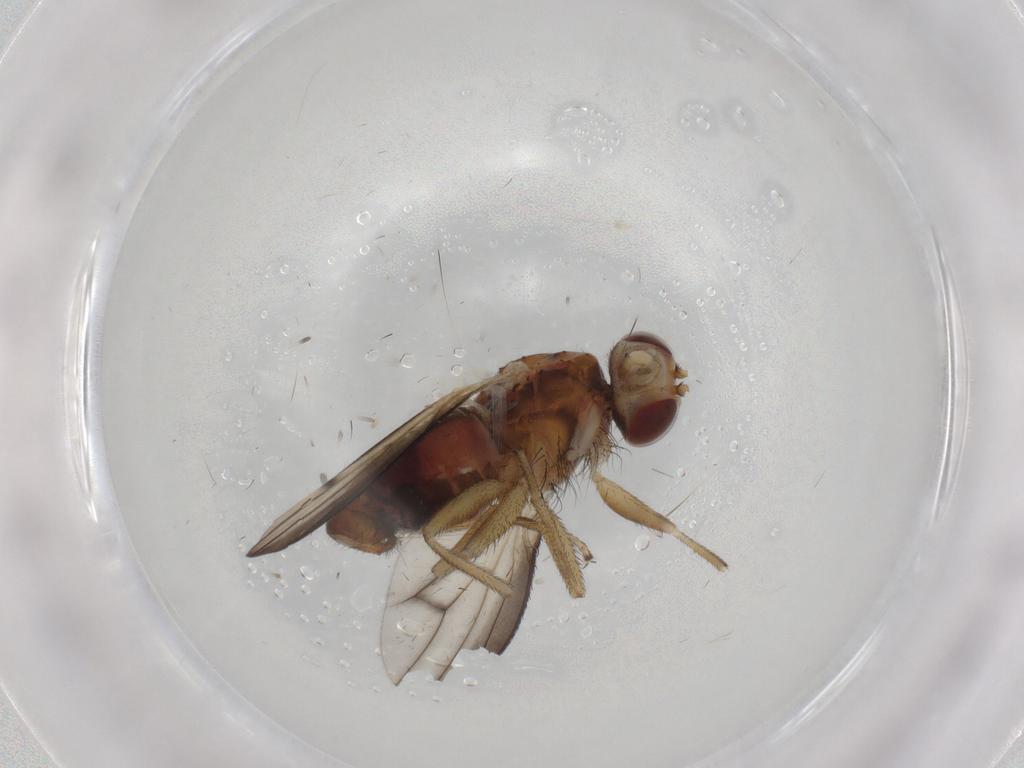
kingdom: Animalia
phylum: Arthropoda
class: Insecta
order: Diptera
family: Heleomyzidae
